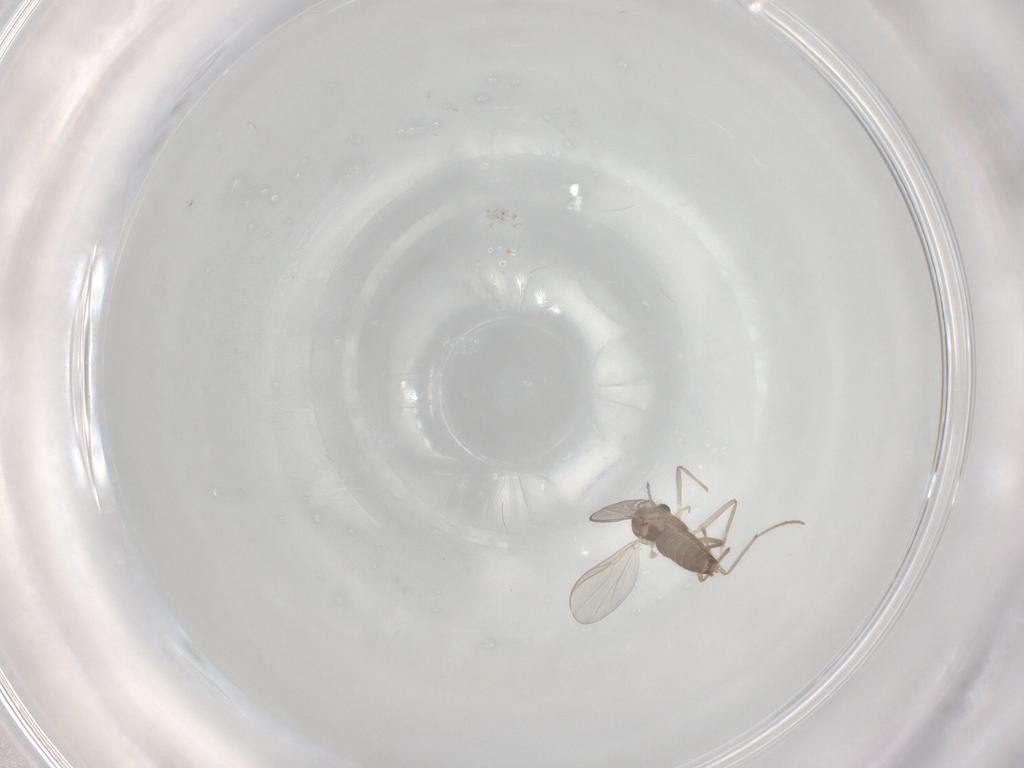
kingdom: Animalia
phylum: Arthropoda
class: Insecta
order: Diptera
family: Chironomidae
